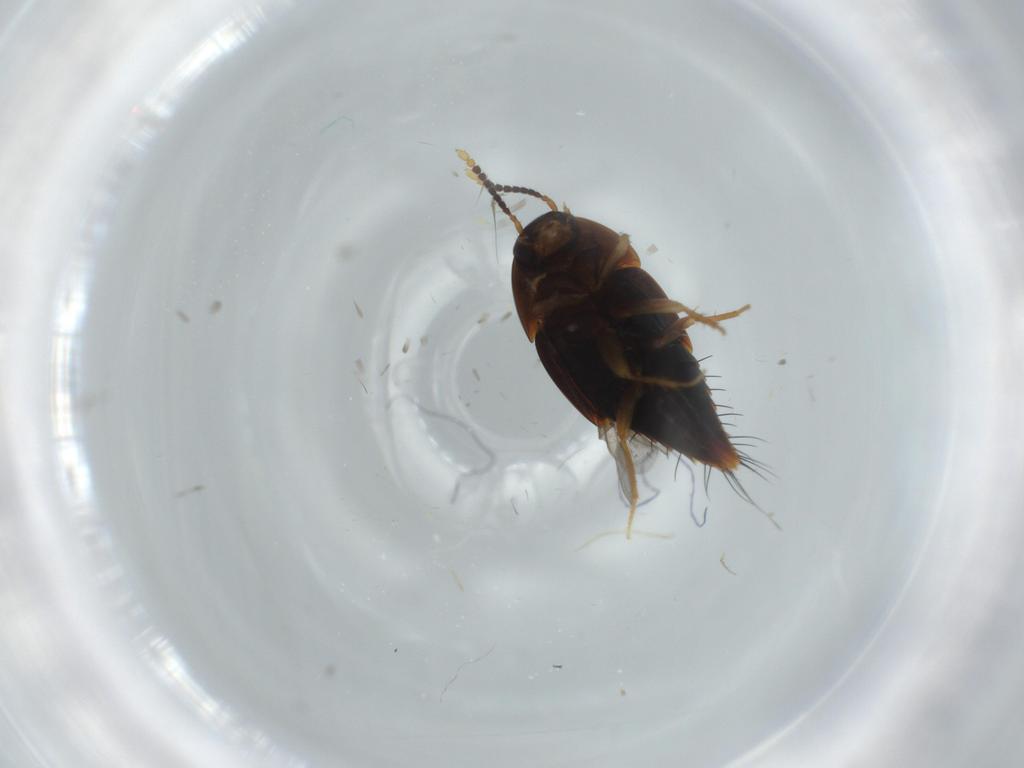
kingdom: Animalia
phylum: Arthropoda
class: Insecta
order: Coleoptera
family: Staphylinidae
